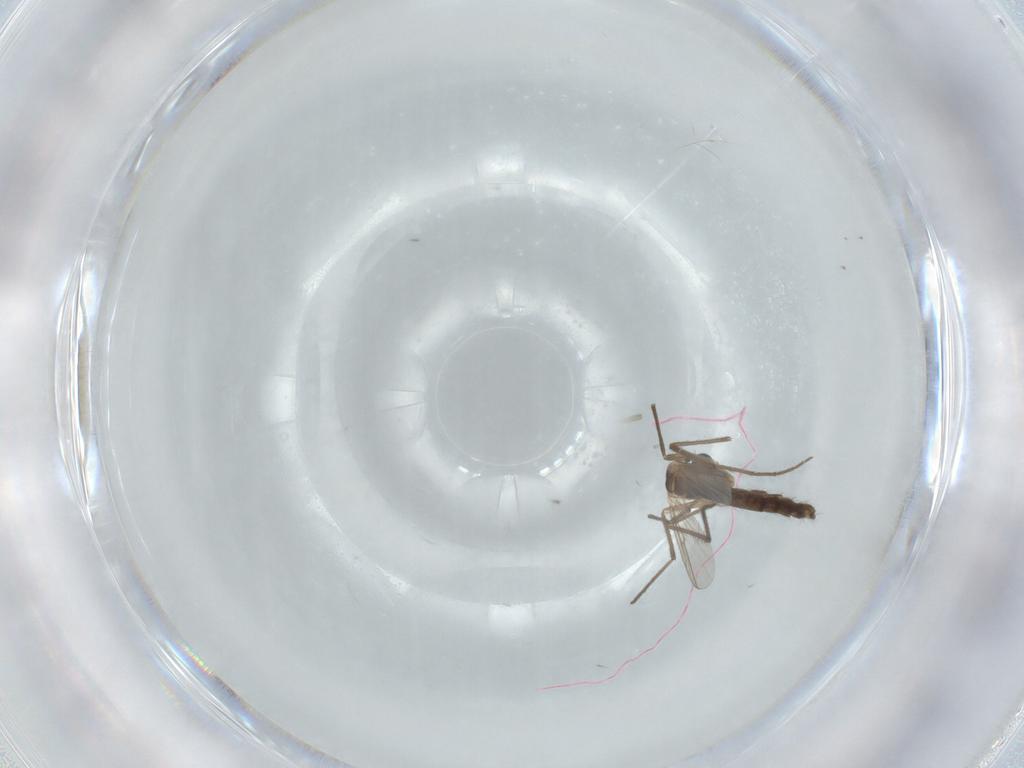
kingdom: Animalia
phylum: Arthropoda
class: Insecta
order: Diptera
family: Chironomidae
